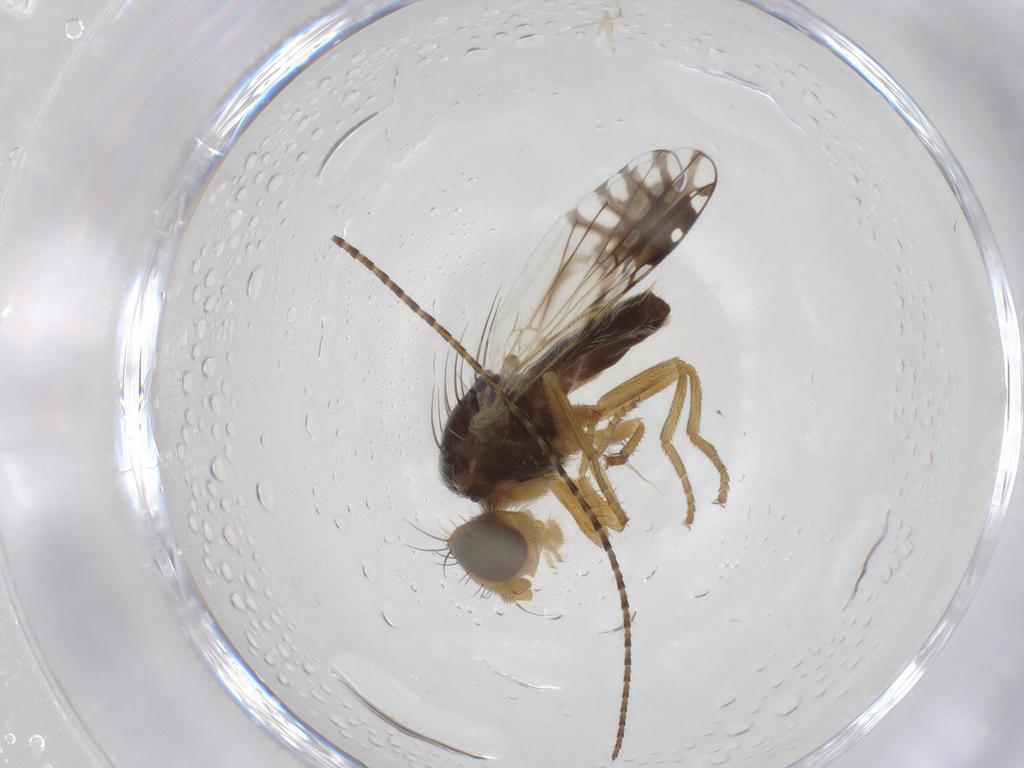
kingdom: Animalia
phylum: Arthropoda
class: Insecta
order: Diptera
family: Tephritidae
